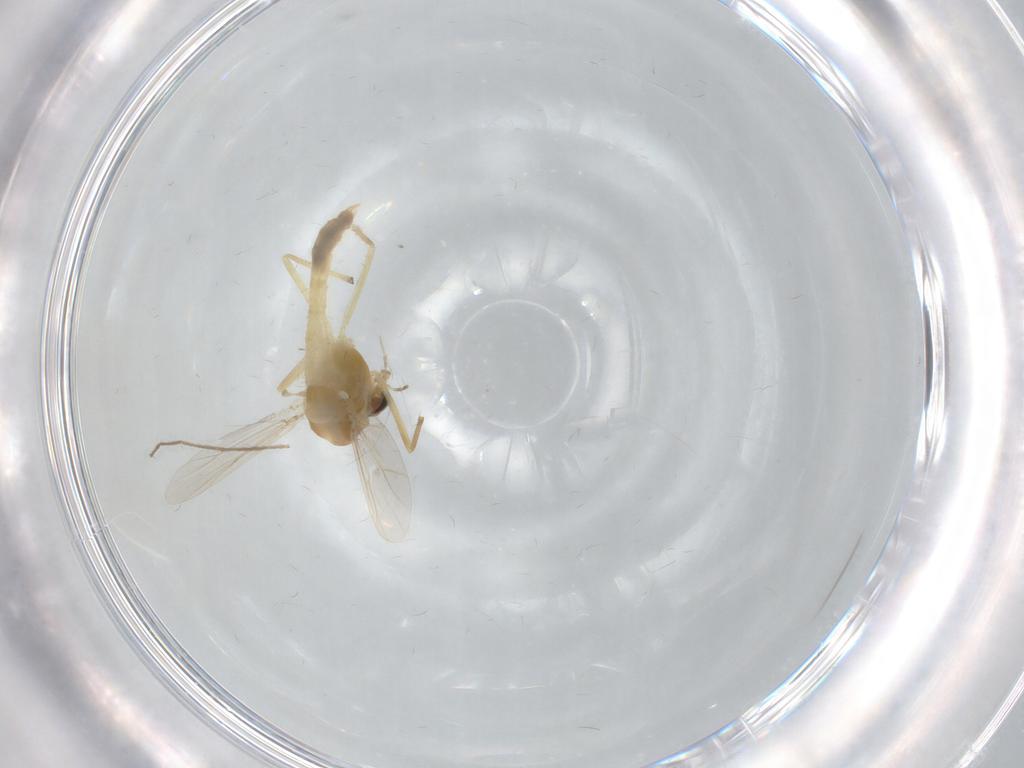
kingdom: Animalia
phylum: Arthropoda
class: Insecta
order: Diptera
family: Chironomidae
